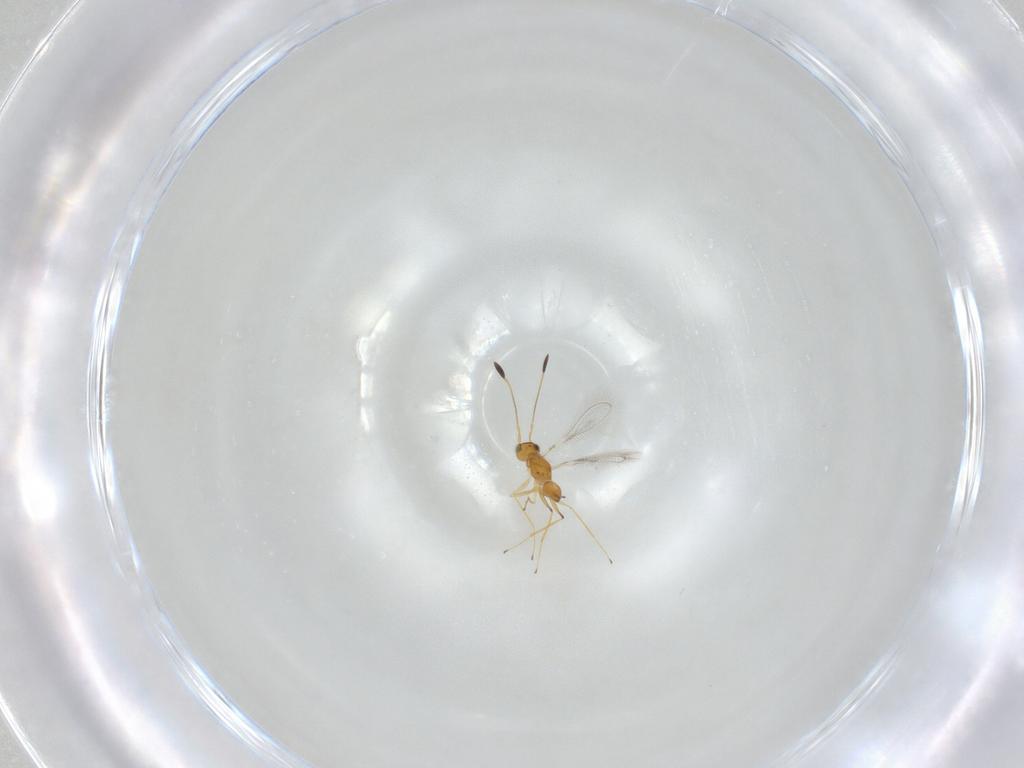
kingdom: Animalia
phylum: Arthropoda
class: Insecta
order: Hymenoptera
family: Mymaridae
